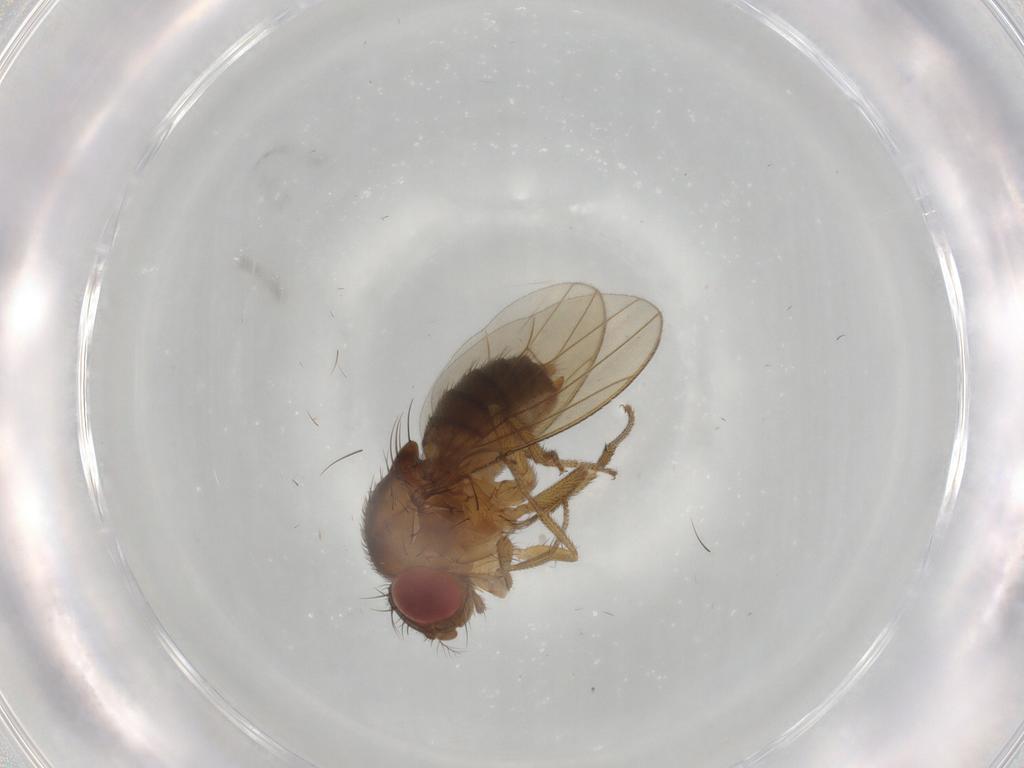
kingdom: Animalia
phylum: Arthropoda
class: Insecta
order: Diptera
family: Drosophilidae
